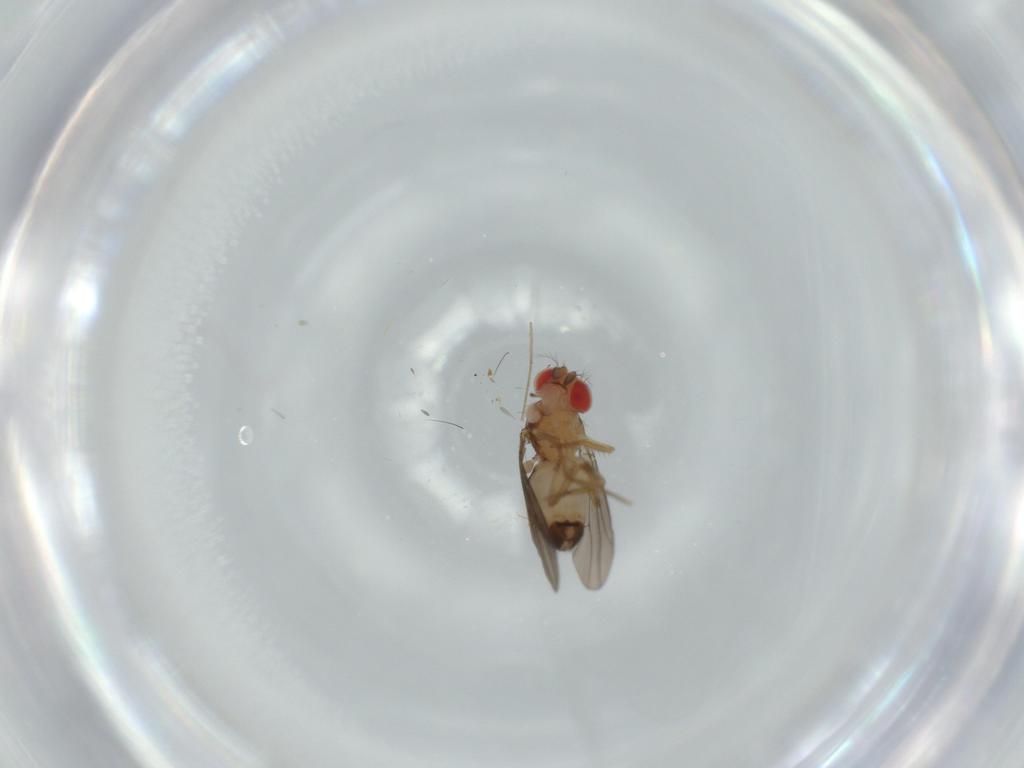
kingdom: Animalia
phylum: Arthropoda
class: Insecta
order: Diptera
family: Drosophilidae
